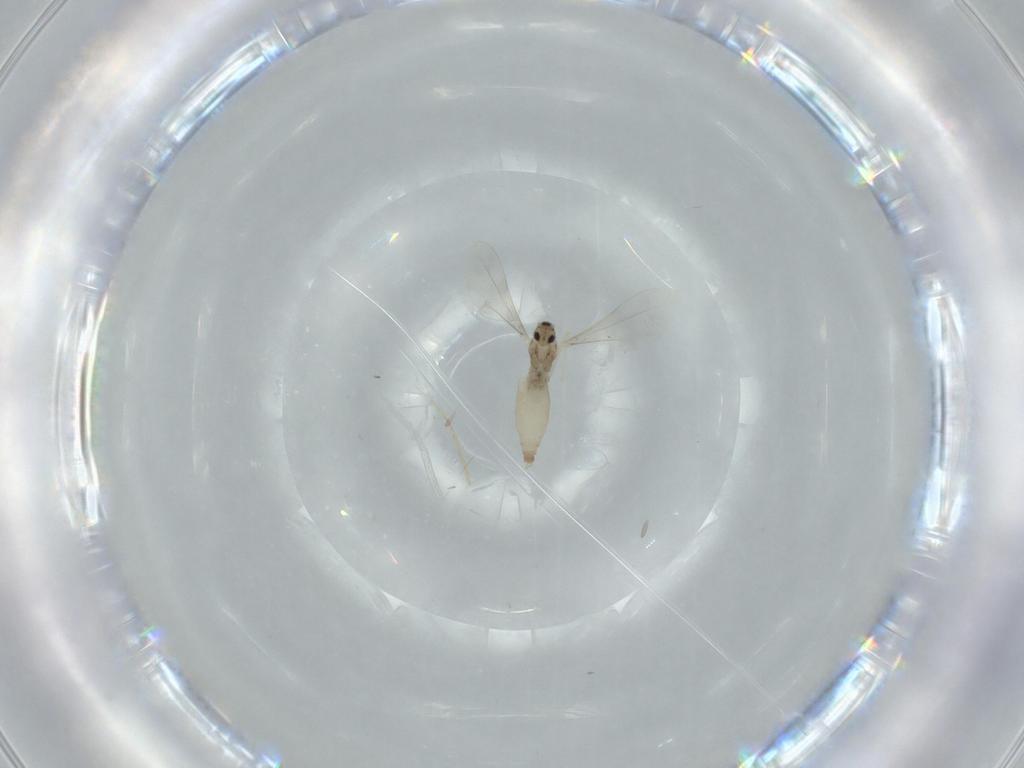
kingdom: Animalia
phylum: Arthropoda
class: Insecta
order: Diptera
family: Cecidomyiidae
